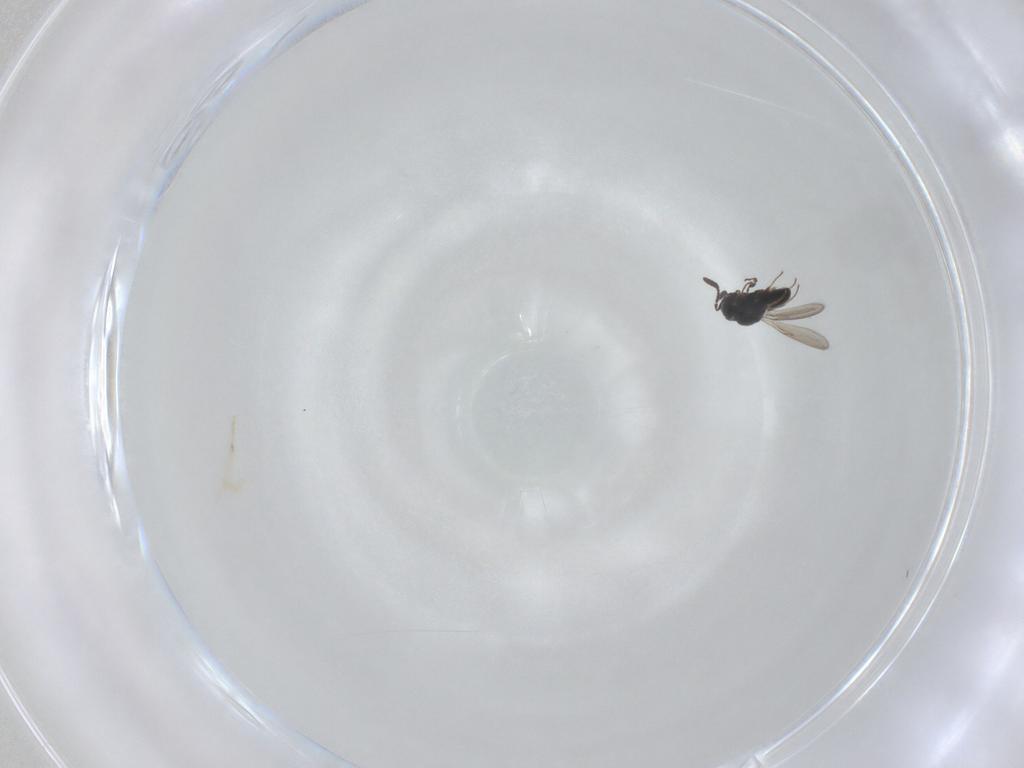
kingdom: Animalia
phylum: Arthropoda
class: Insecta
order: Hymenoptera
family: Scelionidae
